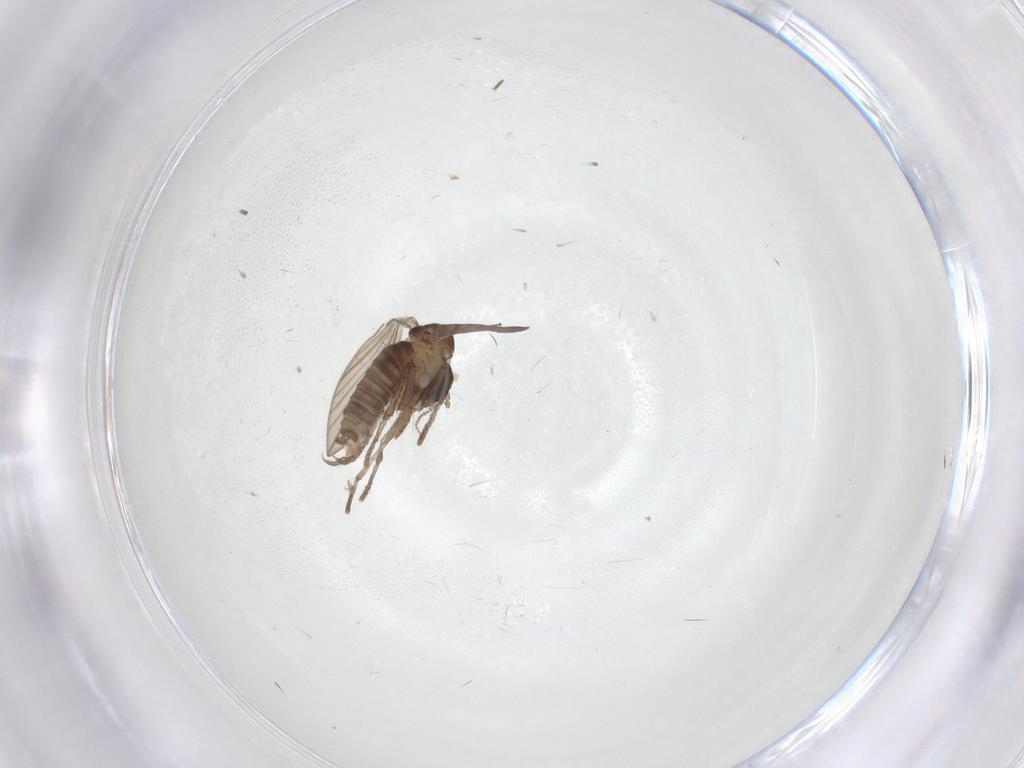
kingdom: Animalia
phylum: Arthropoda
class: Insecta
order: Diptera
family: Psychodidae
